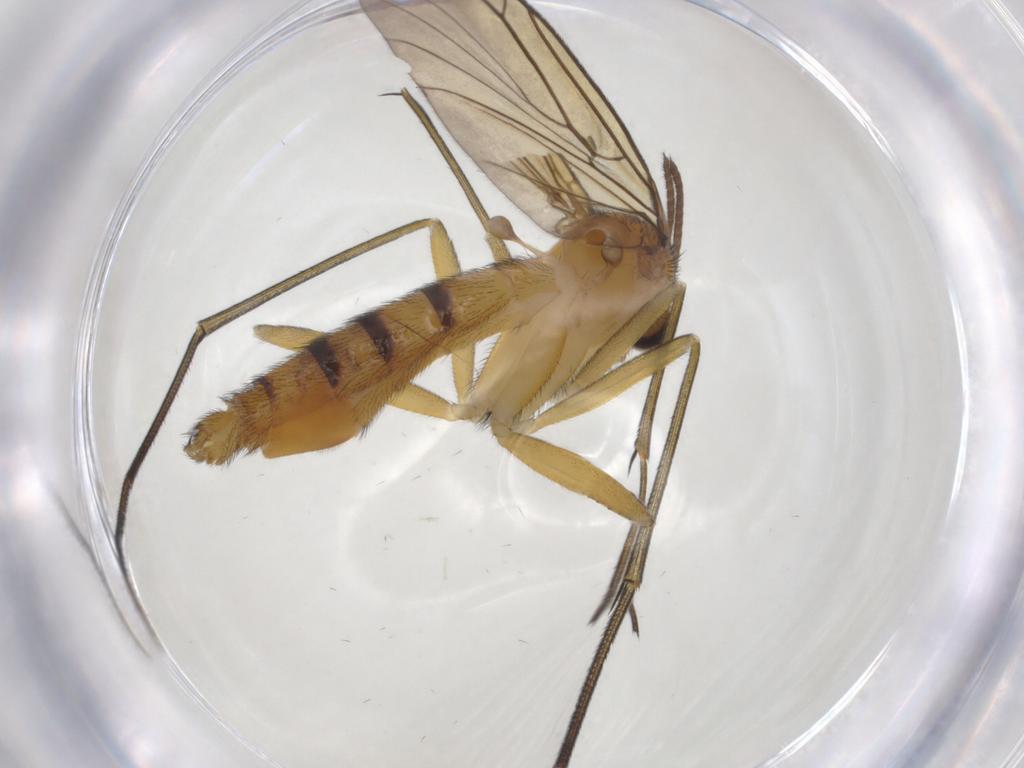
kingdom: Animalia
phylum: Arthropoda
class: Insecta
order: Diptera
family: Keroplatidae
